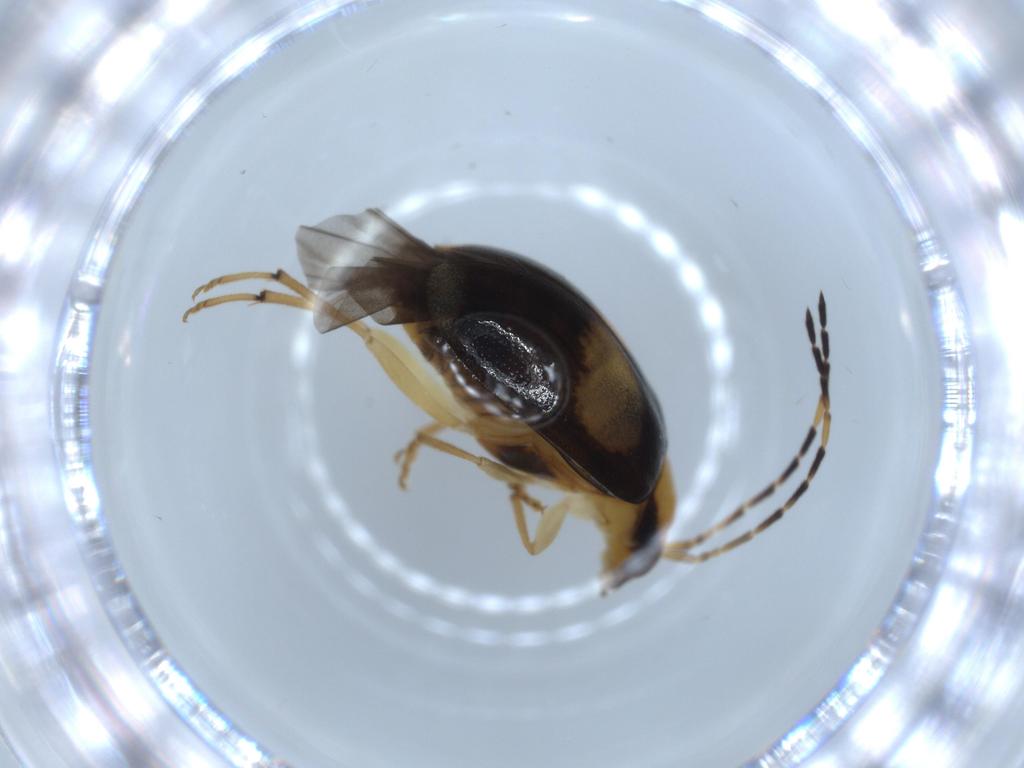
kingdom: Animalia
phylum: Arthropoda
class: Insecta
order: Coleoptera
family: Chrysomelidae
